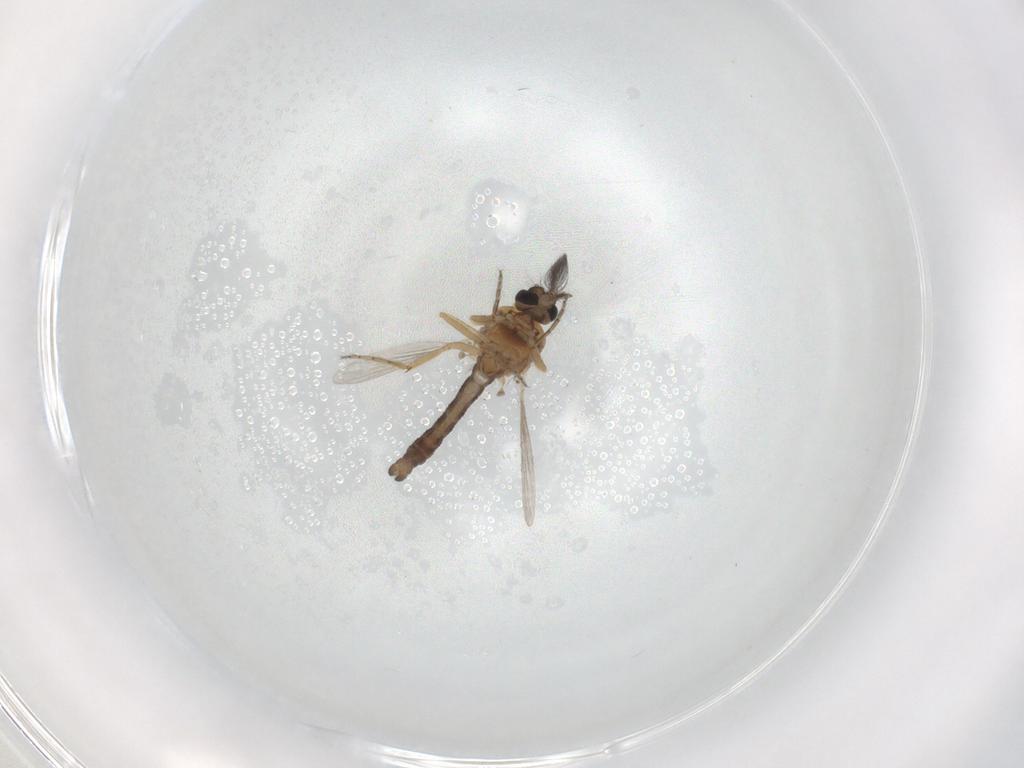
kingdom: Animalia
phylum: Arthropoda
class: Insecta
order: Diptera
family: Ceratopogonidae
